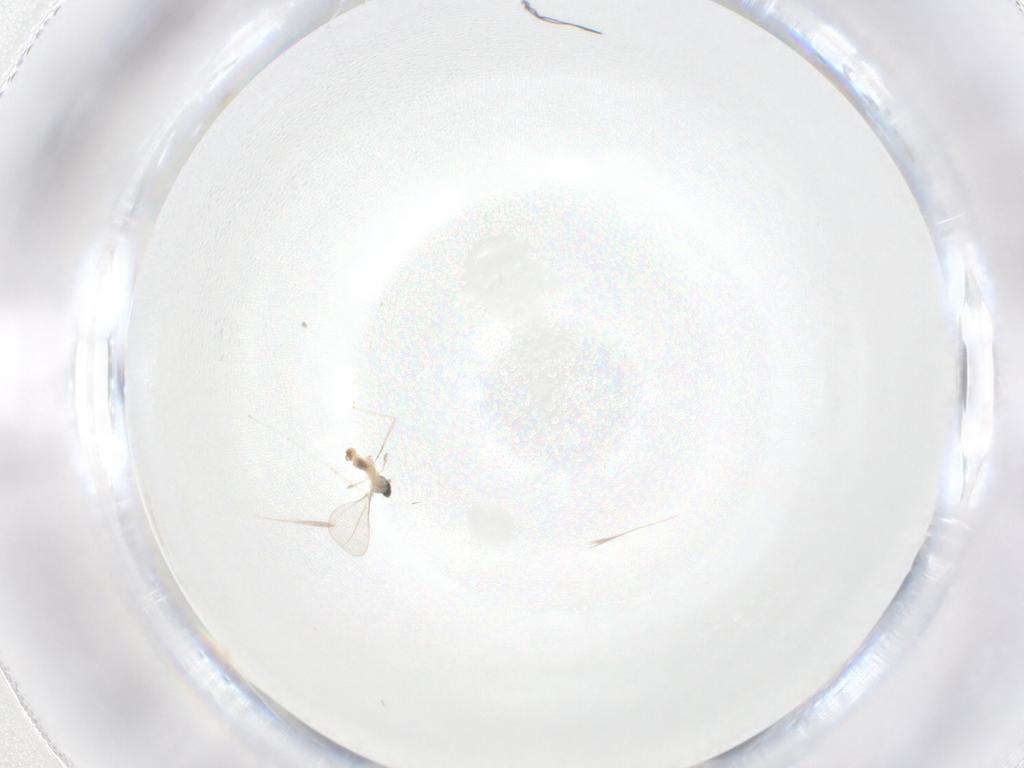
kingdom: Animalia
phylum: Arthropoda
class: Insecta
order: Diptera
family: Cecidomyiidae
